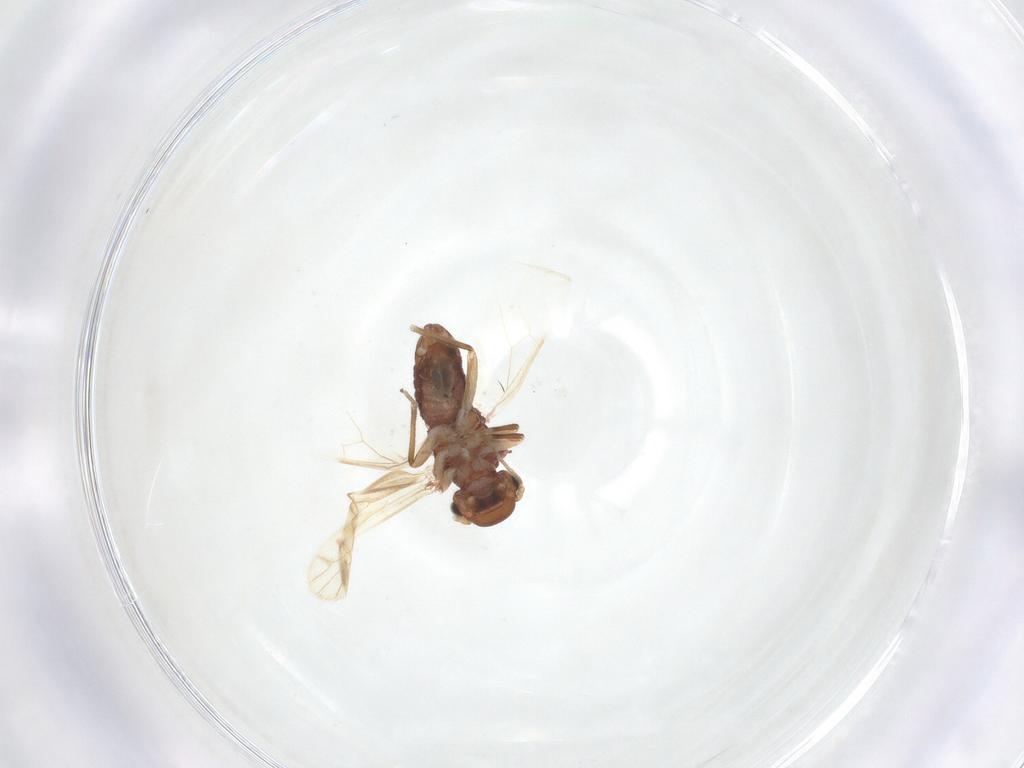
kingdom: Animalia
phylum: Arthropoda
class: Insecta
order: Psocodea
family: Caeciliusidae
